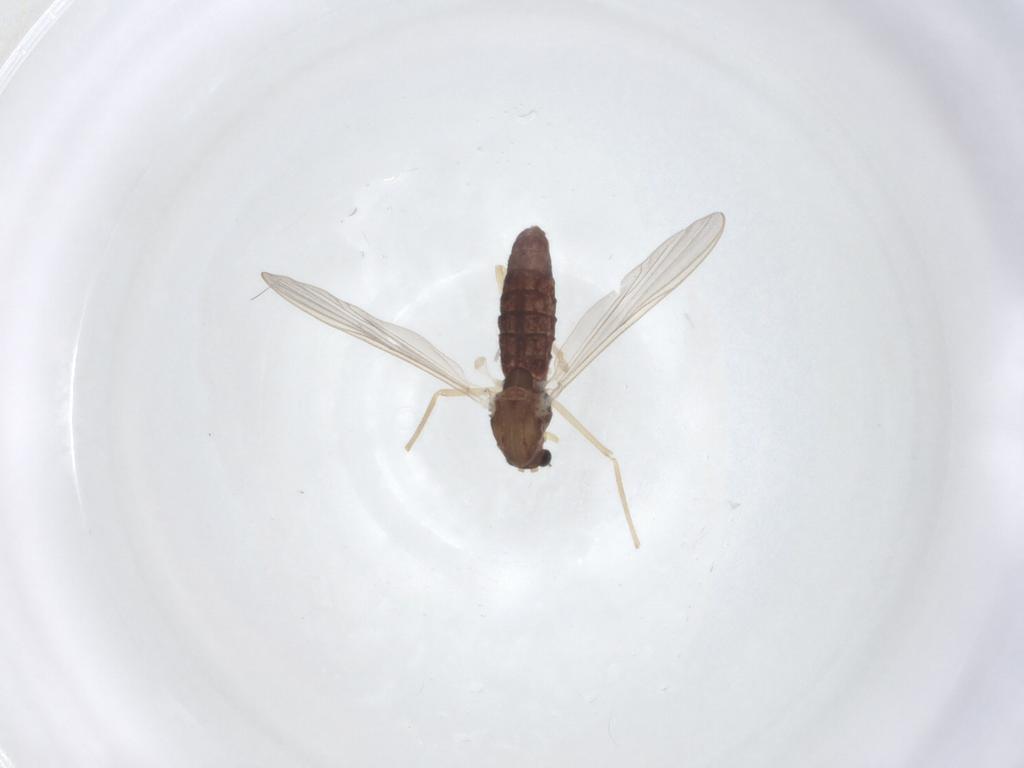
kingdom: Animalia
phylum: Arthropoda
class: Insecta
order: Diptera
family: Chironomidae
